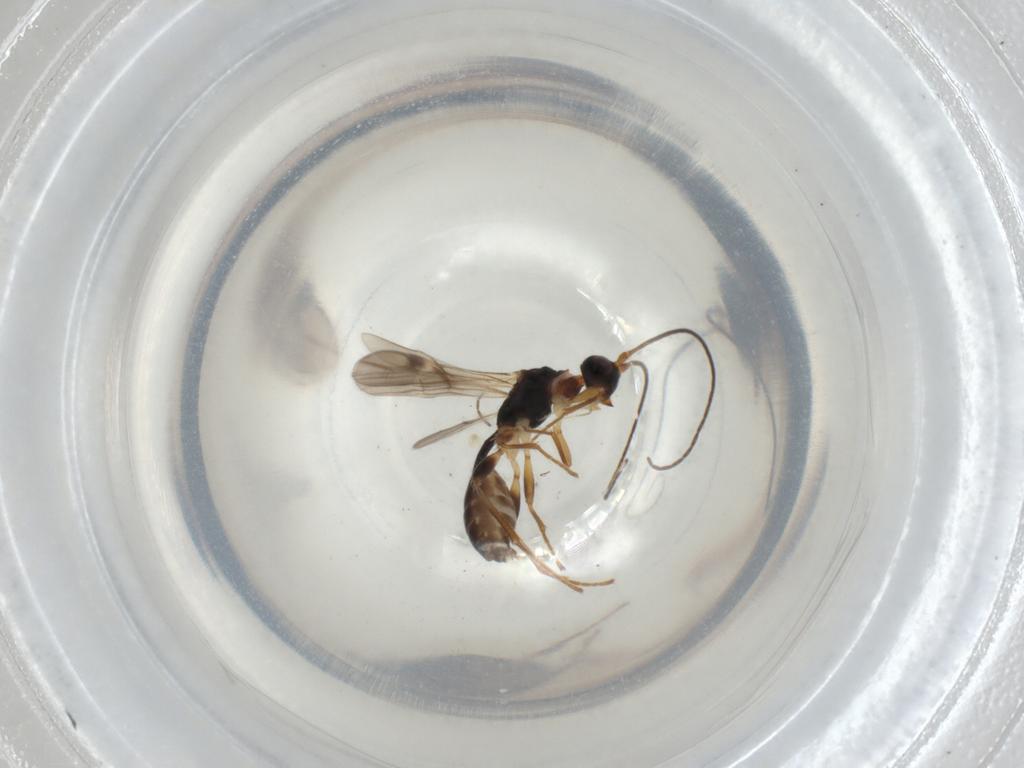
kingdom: Animalia
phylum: Arthropoda
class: Insecta
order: Hymenoptera
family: Braconidae
